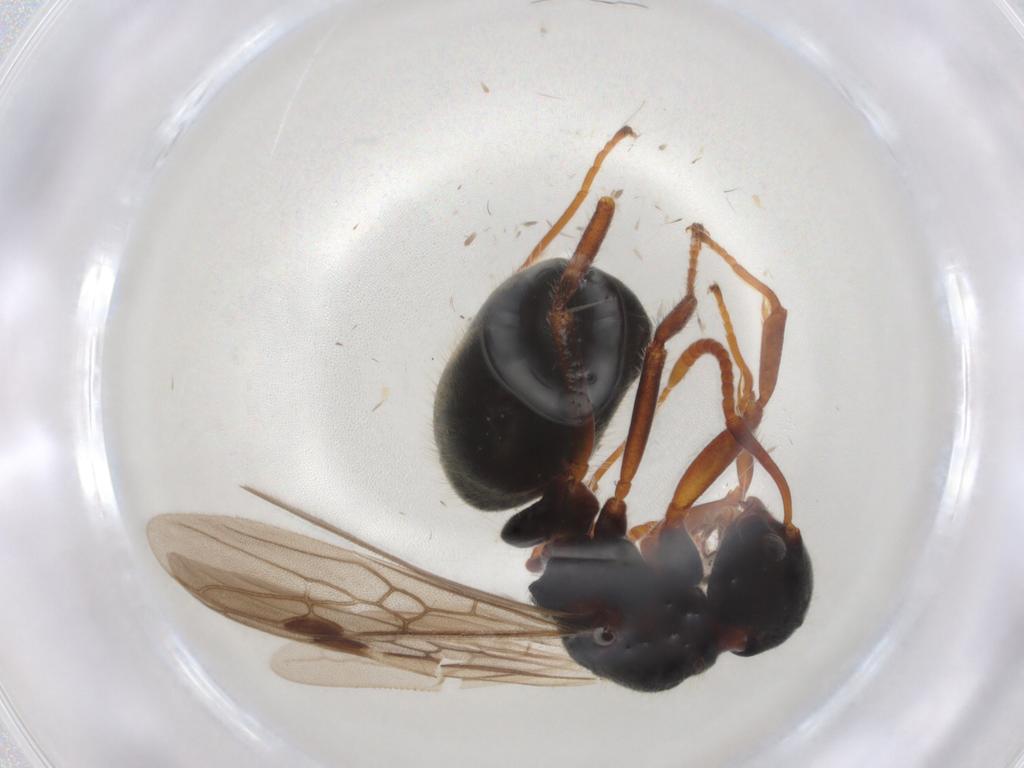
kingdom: Animalia
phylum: Arthropoda
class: Insecta
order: Hymenoptera
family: Formicidae
